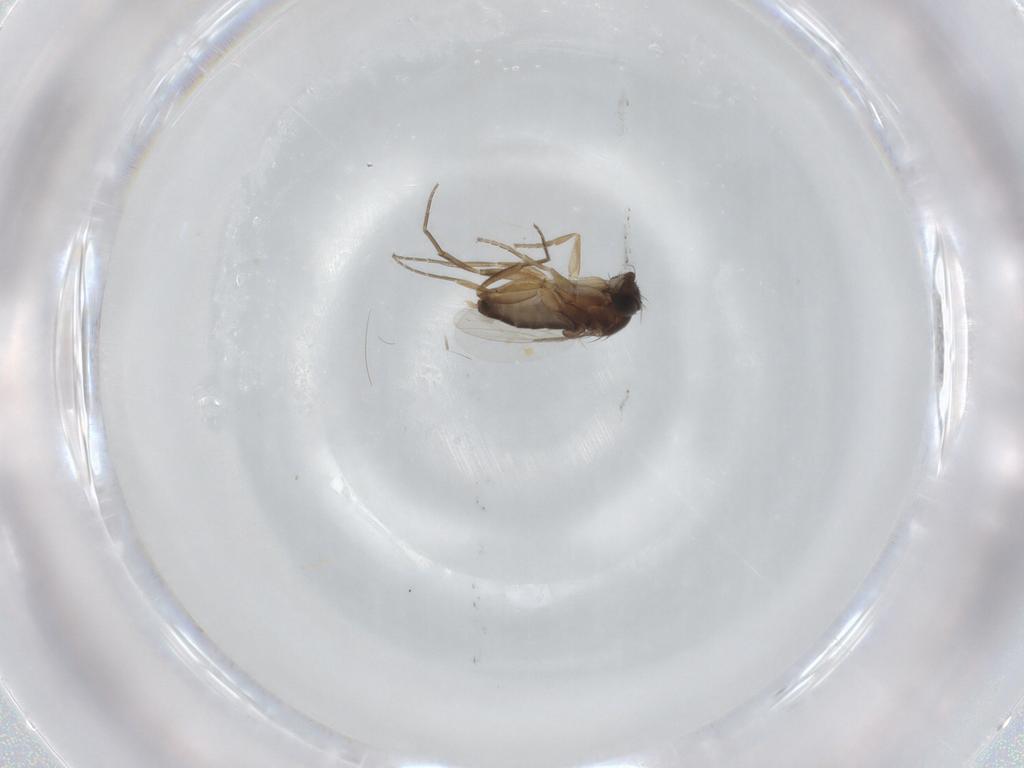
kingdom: Animalia
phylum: Arthropoda
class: Insecta
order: Diptera
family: Phoridae
